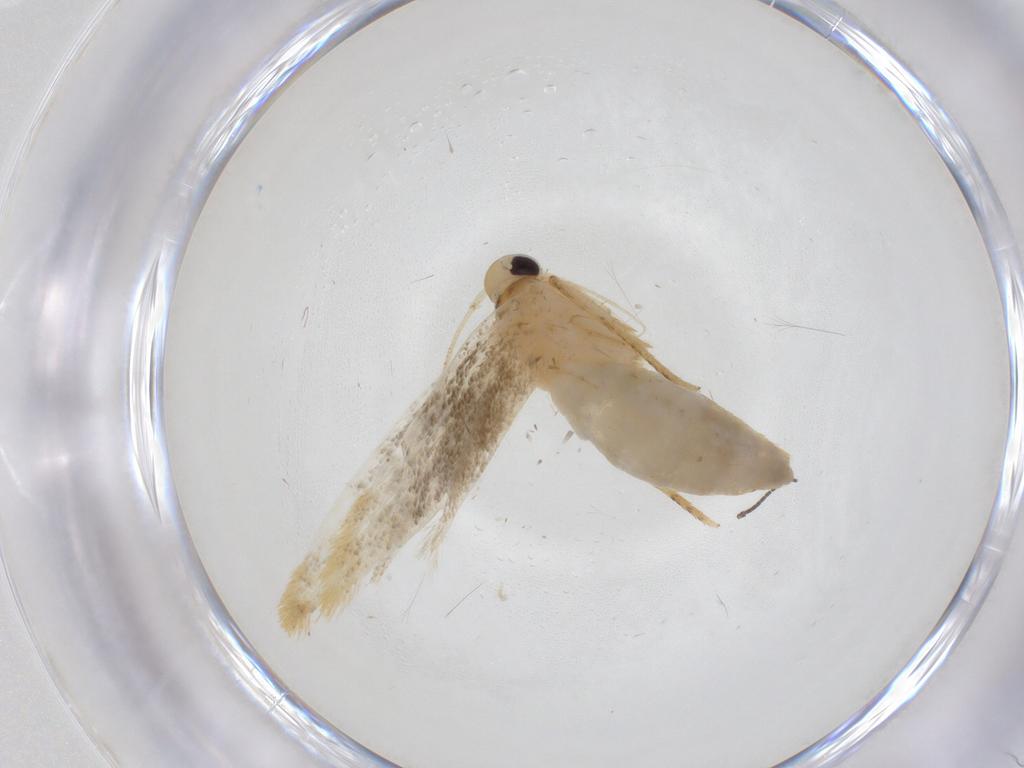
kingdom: Animalia
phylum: Arthropoda
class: Insecta
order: Lepidoptera
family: Erebidae
